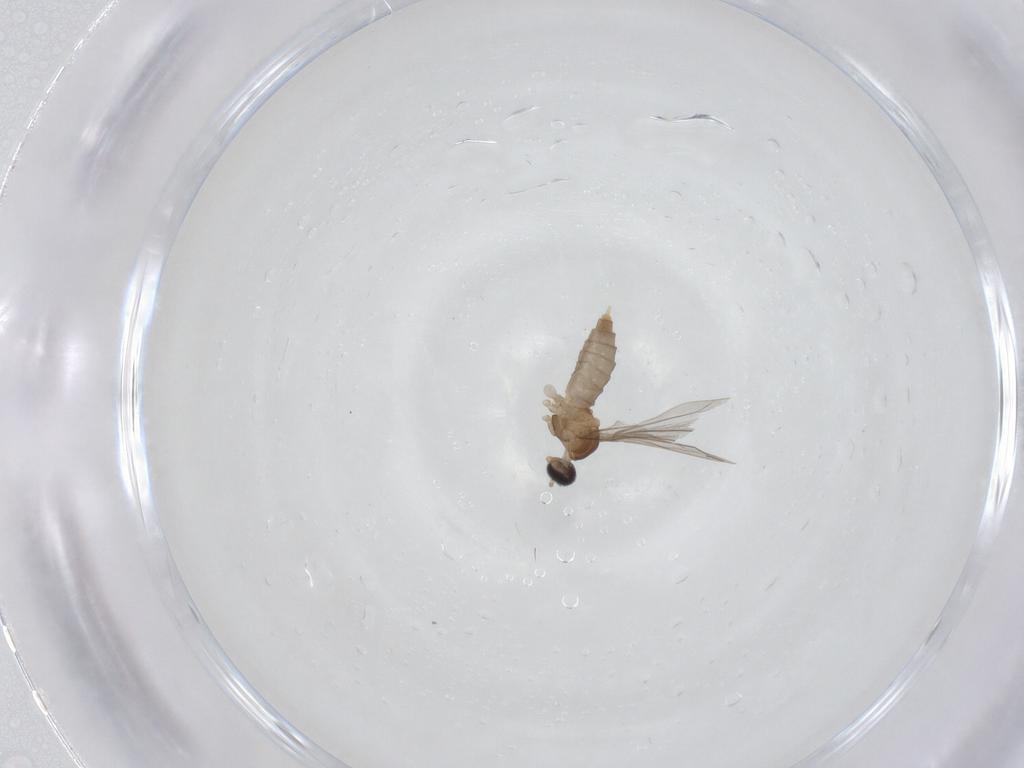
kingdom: Animalia
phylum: Arthropoda
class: Insecta
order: Diptera
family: Cecidomyiidae
